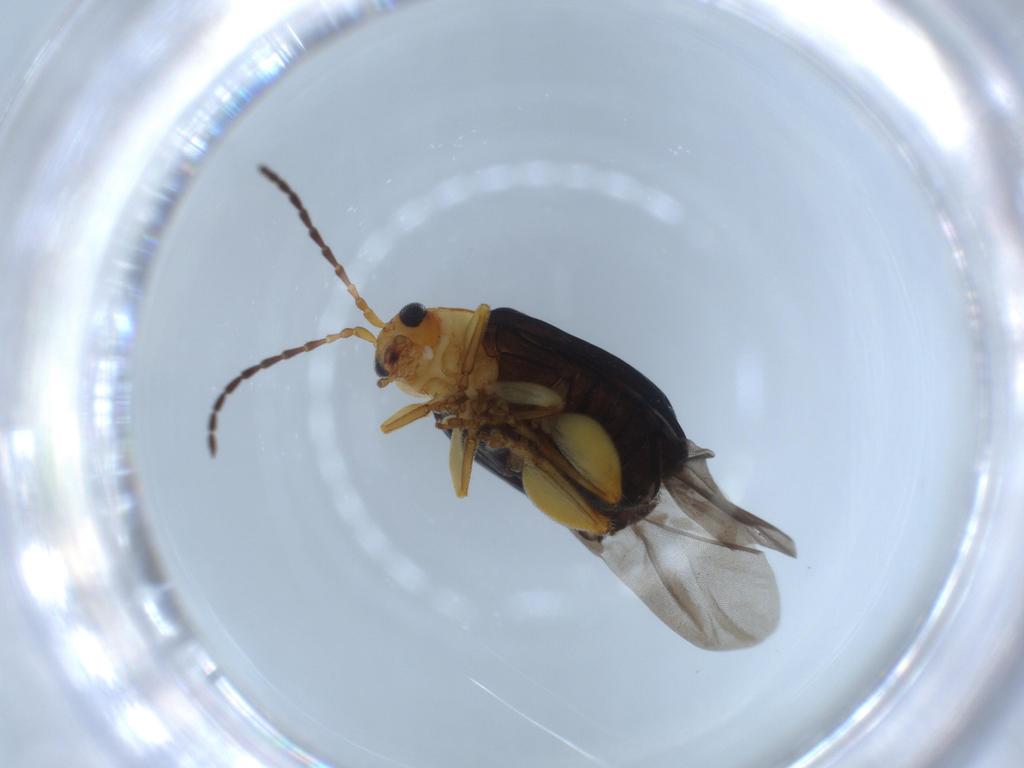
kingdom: Animalia
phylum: Arthropoda
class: Insecta
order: Coleoptera
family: Chrysomelidae
